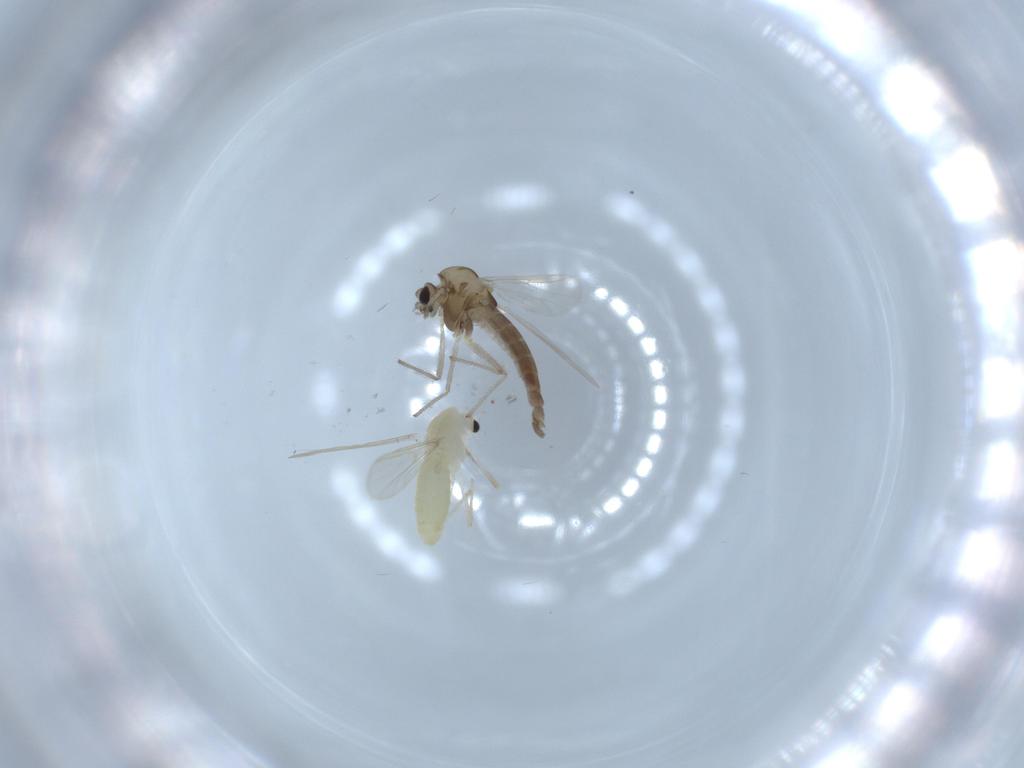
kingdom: Animalia
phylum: Arthropoda
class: Insecta
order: Diptera
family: Chironomidae
